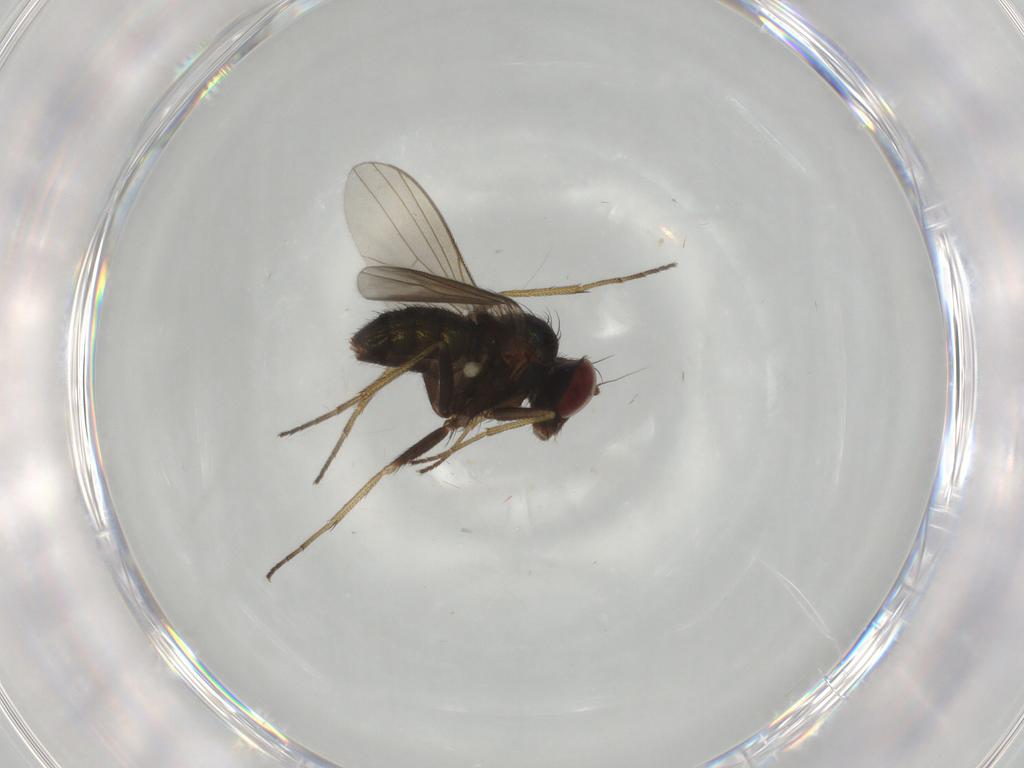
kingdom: Animalia
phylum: Arthropoda
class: Insecta
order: Diptera
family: Dolichopodidae
